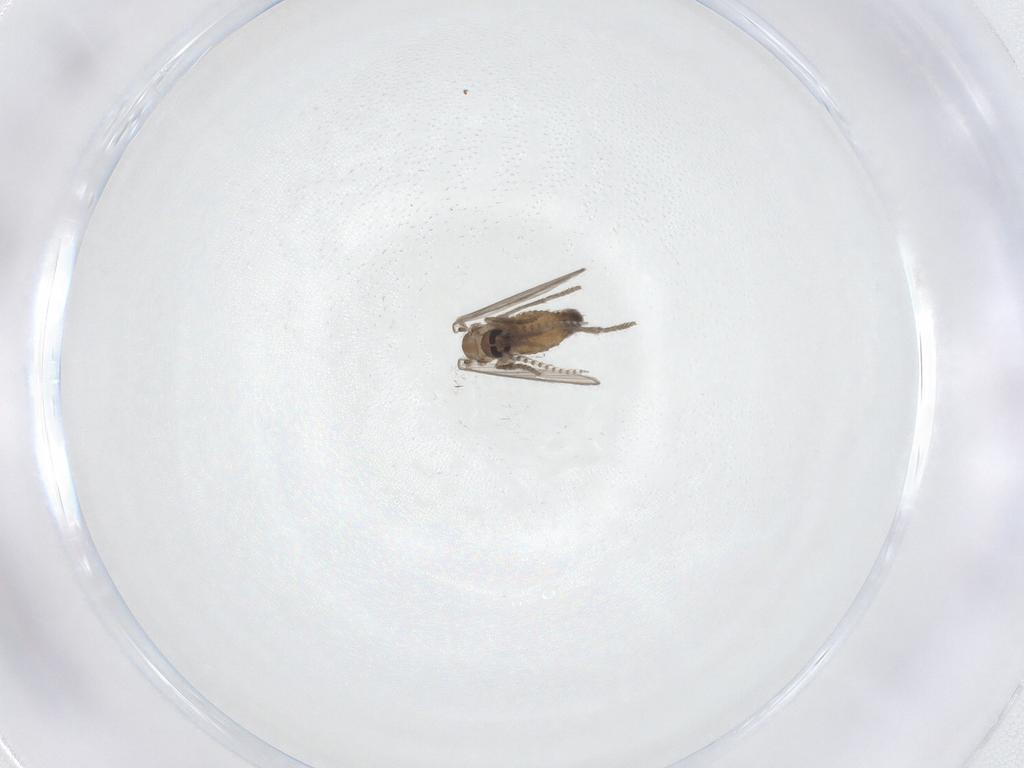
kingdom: Animalia
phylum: Arthropoda
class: Insecta
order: Diptera
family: Psychodidae
